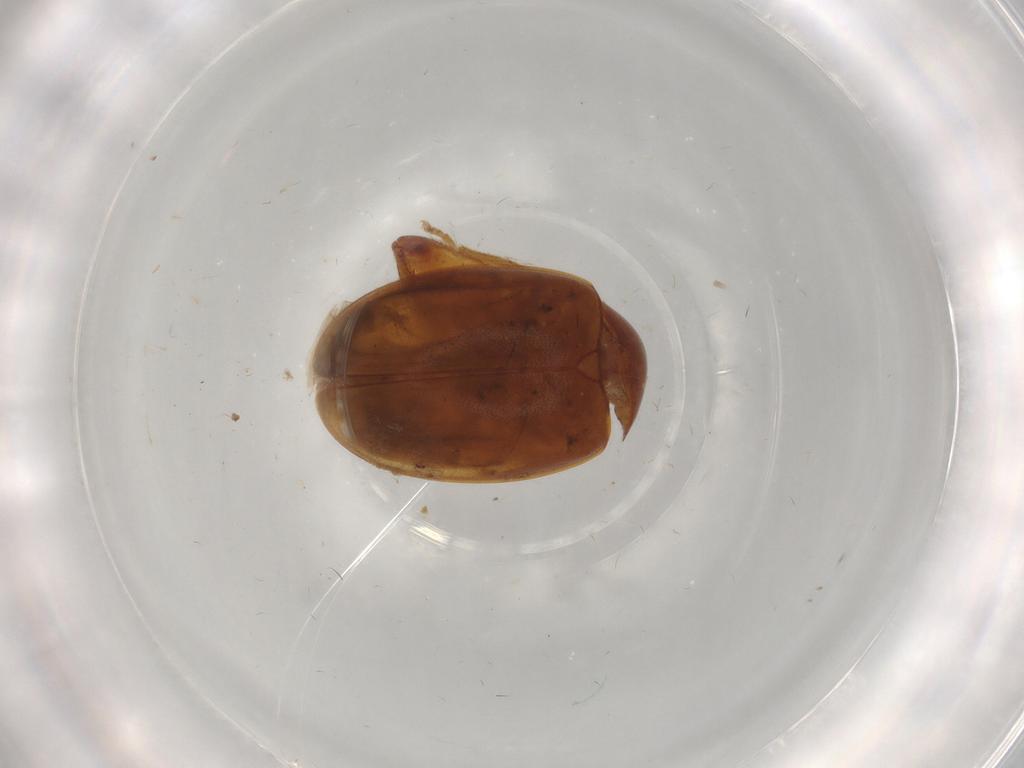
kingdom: Animalia
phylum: Arthropoda
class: Insecta
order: Coleoptera
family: Scirtidae
